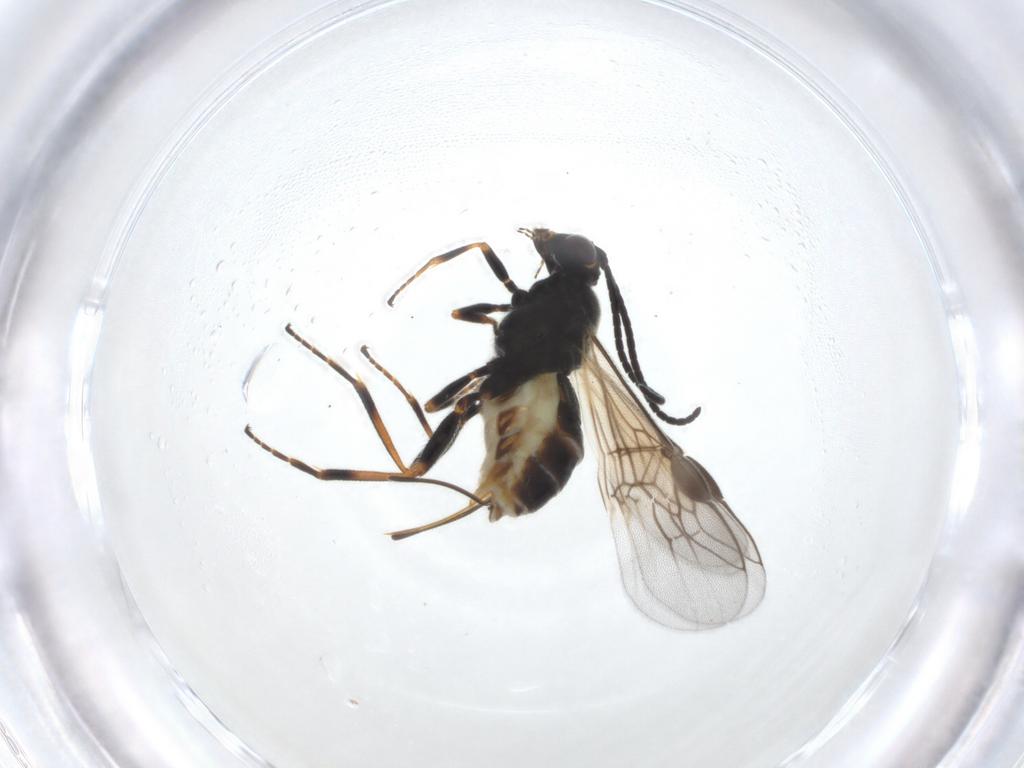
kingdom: Animalia
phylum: Arthropoda
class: Insecta
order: Hymenoptera
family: Braconidae
